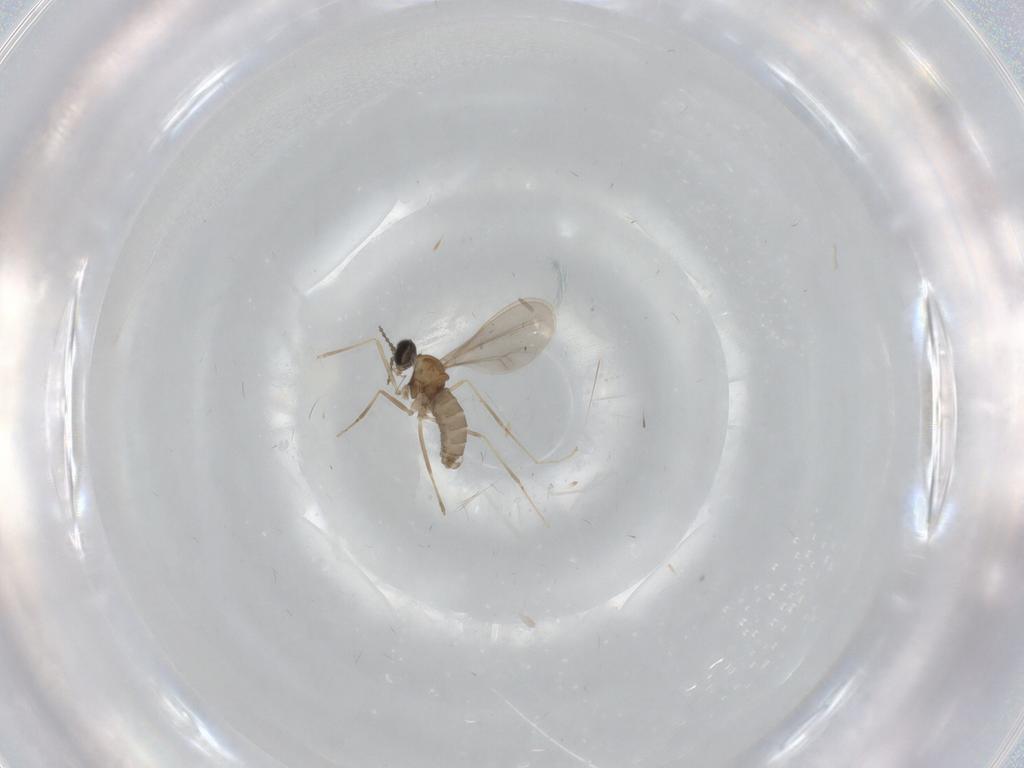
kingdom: Animalia
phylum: Arthropoda
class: Insecta
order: Diptera
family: Cecidomyiidae
